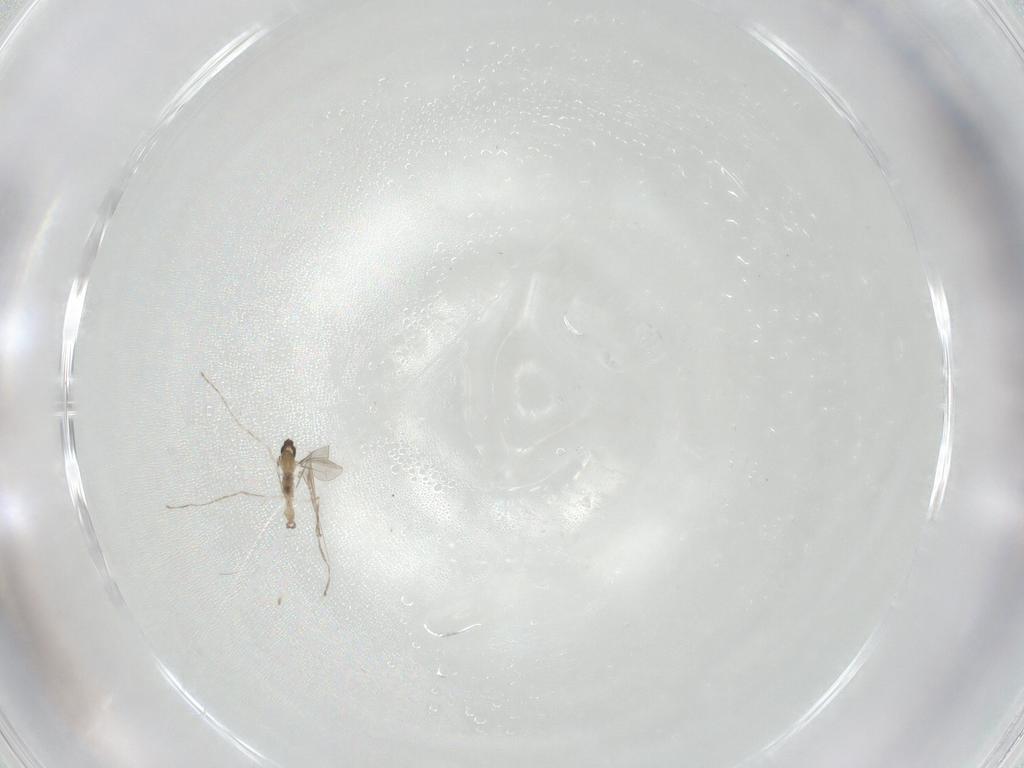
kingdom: Animalia
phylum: Arthropoda
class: Insecta
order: Diptera
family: Cecidomyiidae
